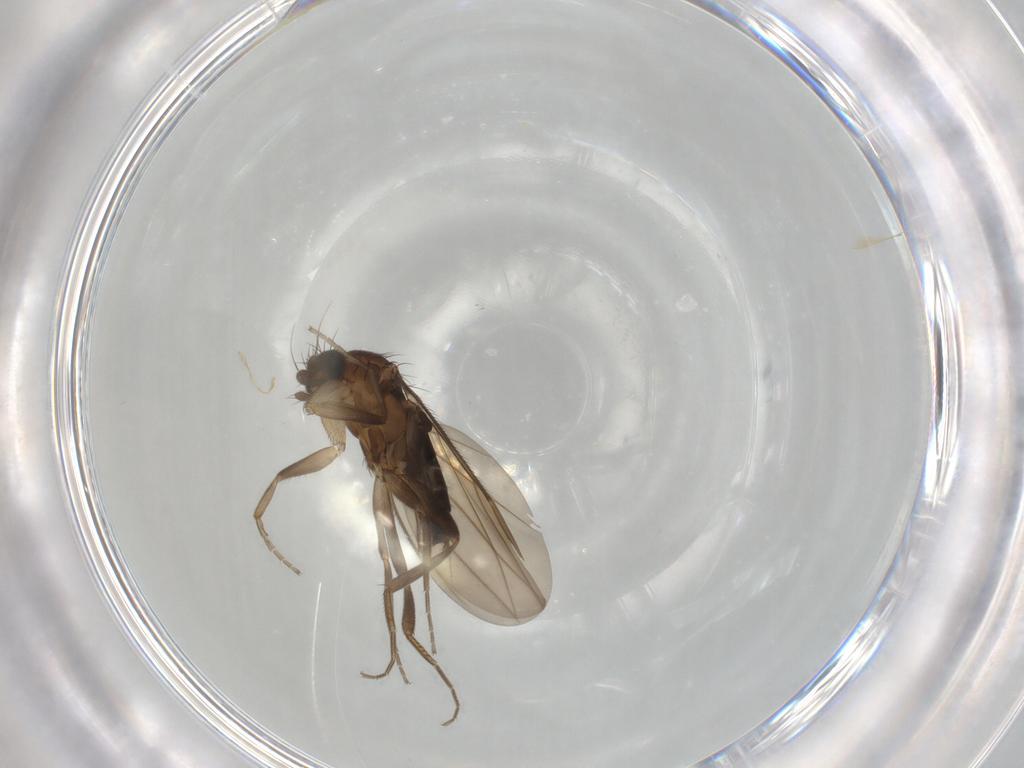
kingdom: Animalia
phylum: Arthropoda
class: Insecta
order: Diptera
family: Phoridae
